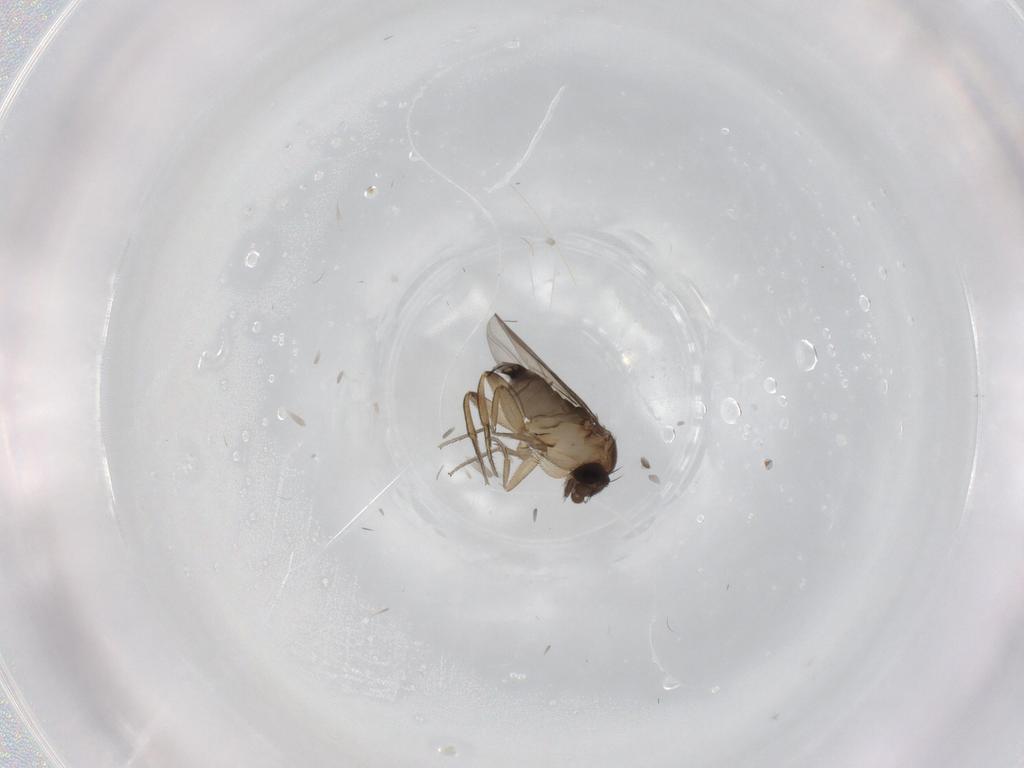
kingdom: Animalia
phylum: Arthropoda
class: Insecta
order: Diptera
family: Phoridae
